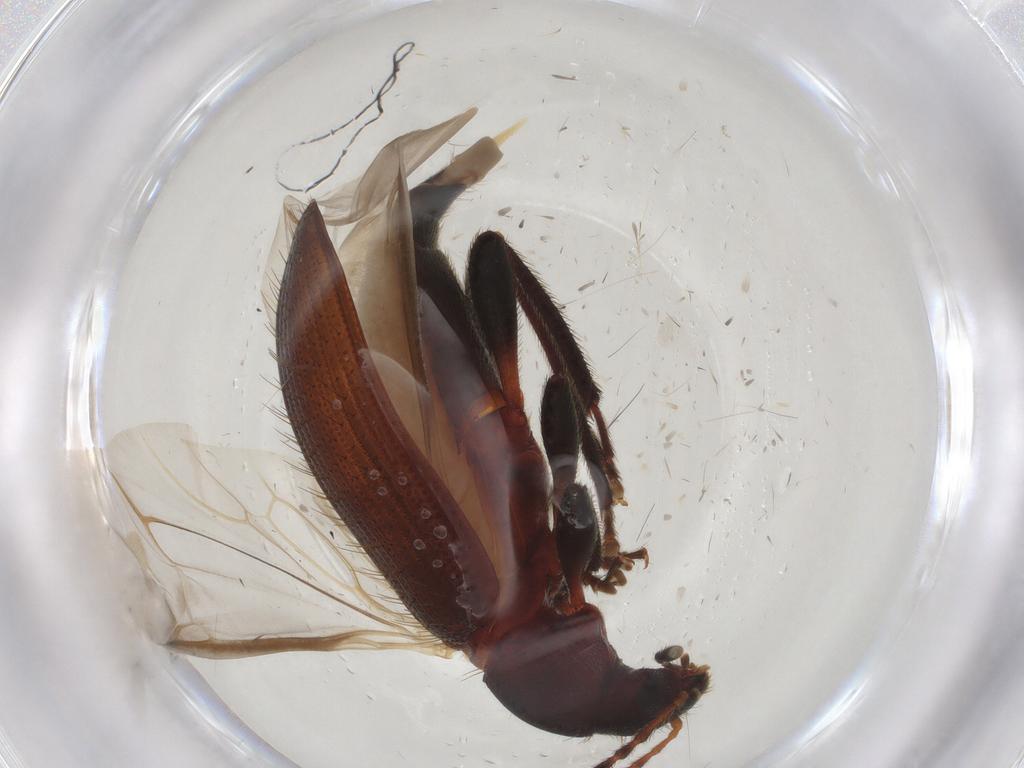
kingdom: Animalia
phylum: Arthropoda
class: Insecta
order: Coleoptera
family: Tenebrionidae
